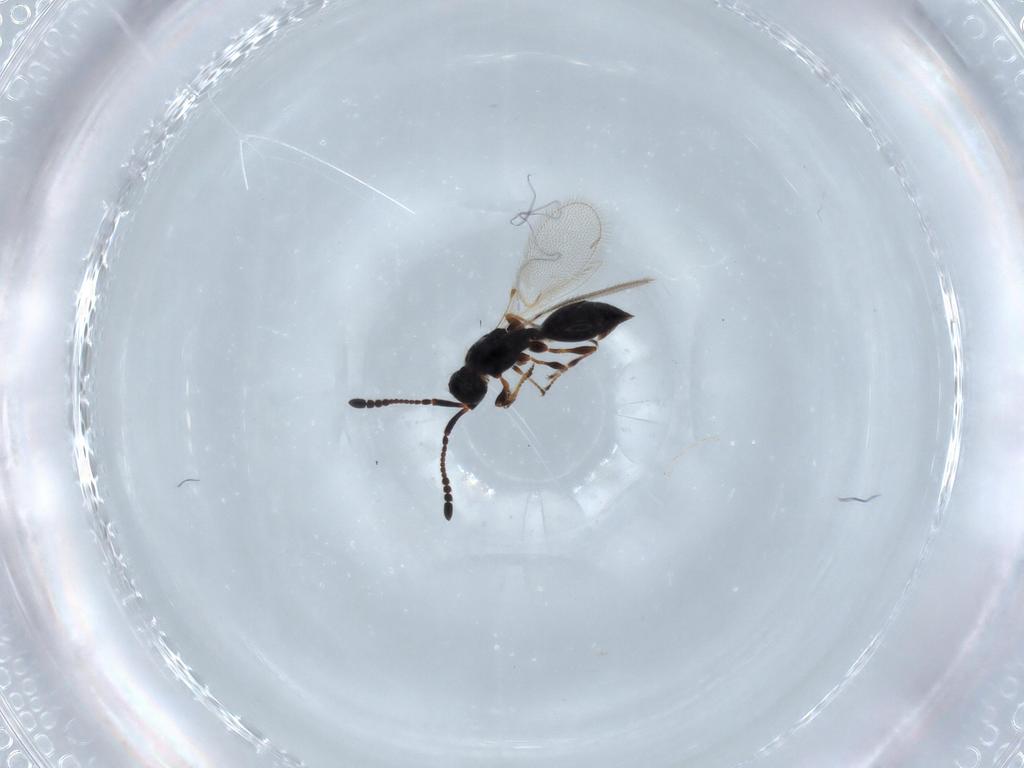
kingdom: Animalia
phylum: Arthropoda
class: Insecta
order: Hymenoptera
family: Diapriidae
